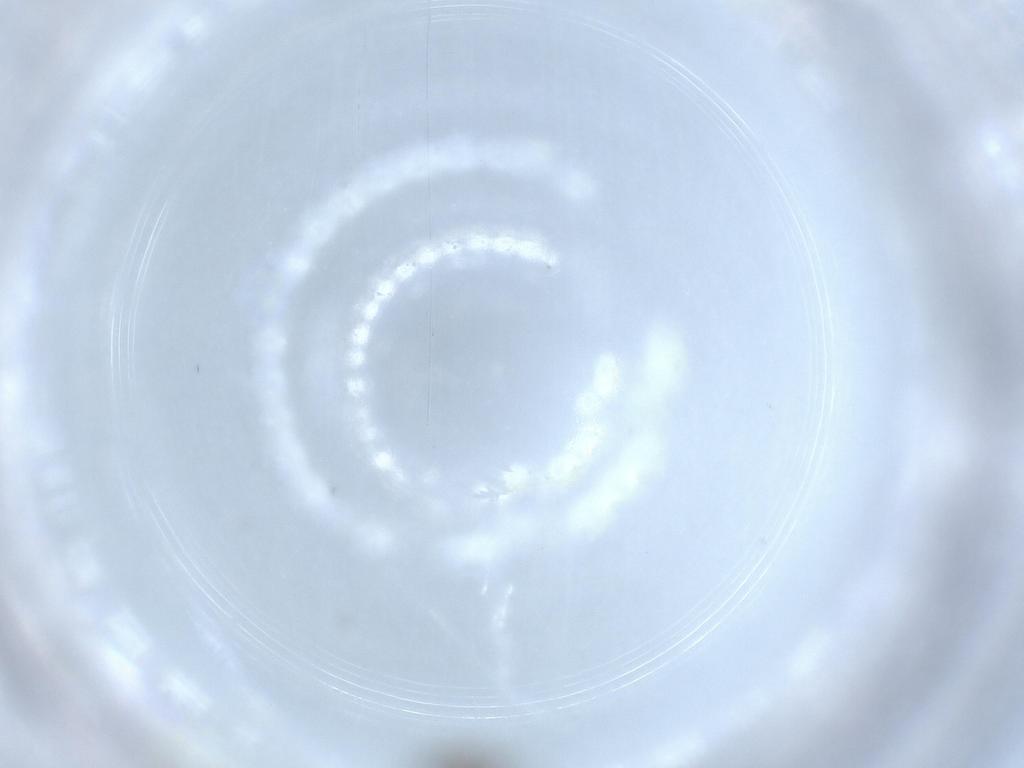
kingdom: Animalia
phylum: Arthropoda
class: Insecta
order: Diptera
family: Psychodidae
